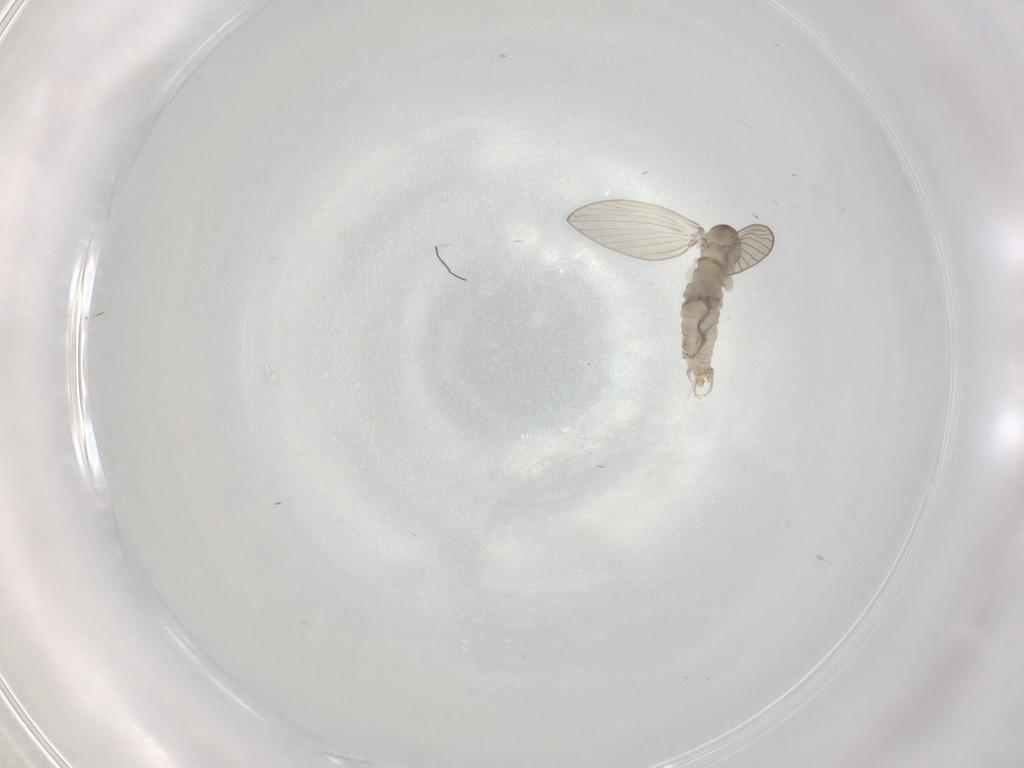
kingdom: Animalia
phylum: Arthropoda
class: Insecta
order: Diptera
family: Psychodidae
